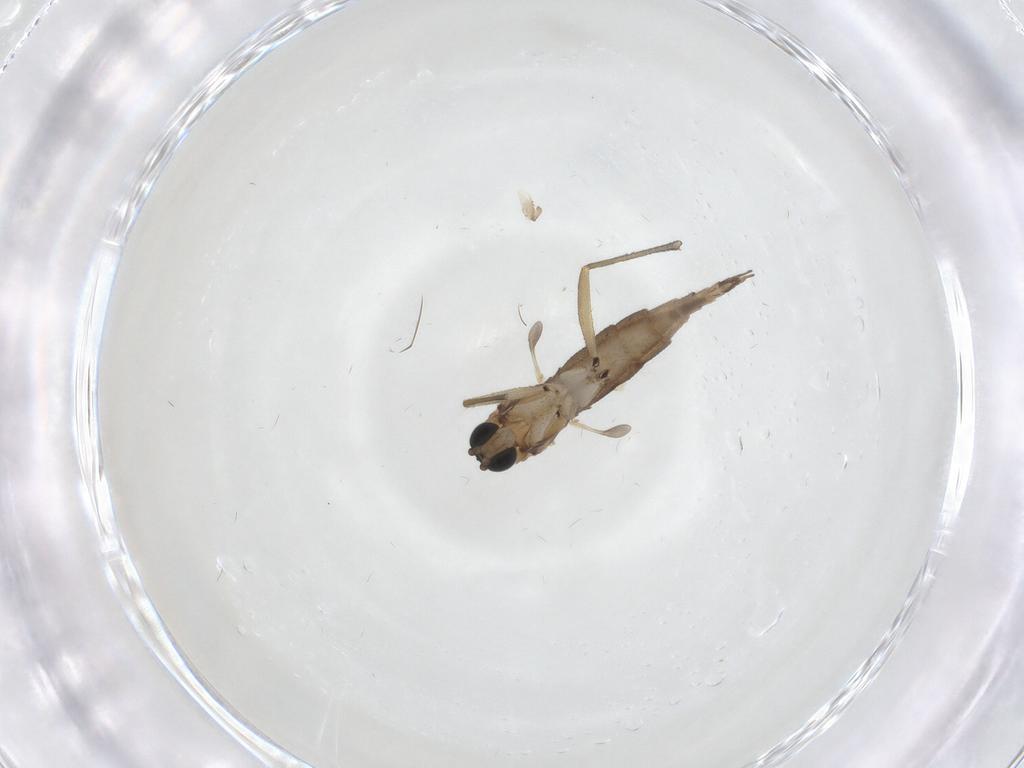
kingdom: Animalia
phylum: Arthropoda
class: Insecta
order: Diptera
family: Sciaridae
